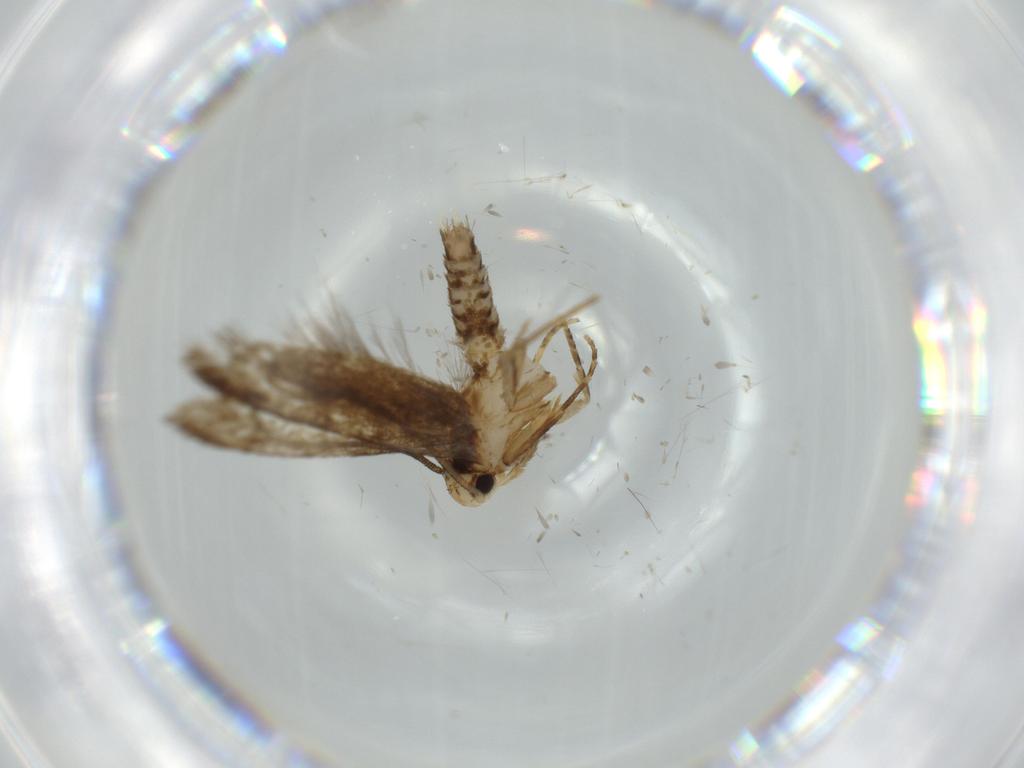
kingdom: Animalia
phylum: Arthropoda
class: Insecta
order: Lepidoptera
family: Tineidae
